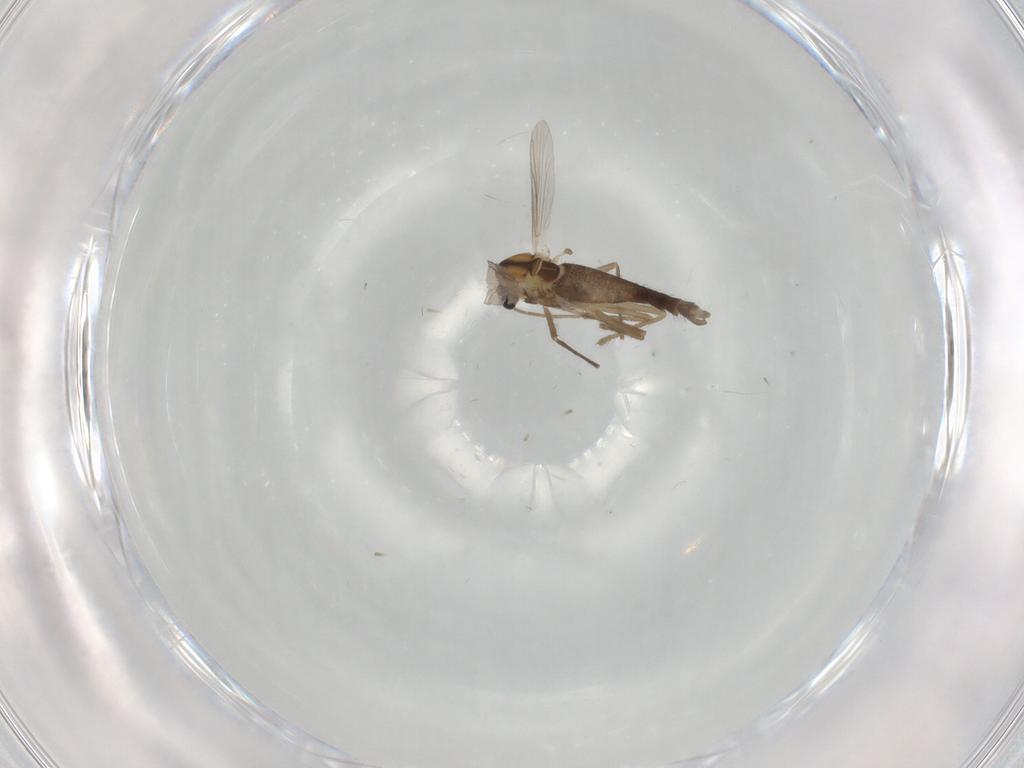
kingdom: Animalia
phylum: Arthropoda
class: Insecta
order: Diptera
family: Chironomidae
